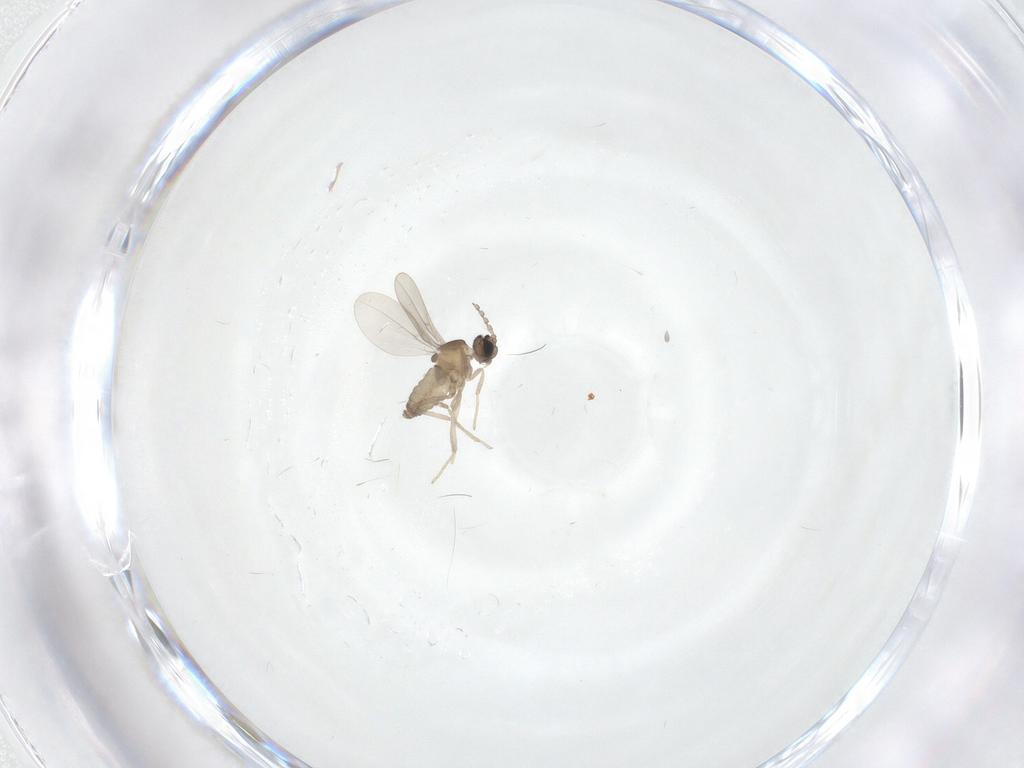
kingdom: Animalia
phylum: Arthropoda
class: Insecta
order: Diptera
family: Cecidomyiidae
